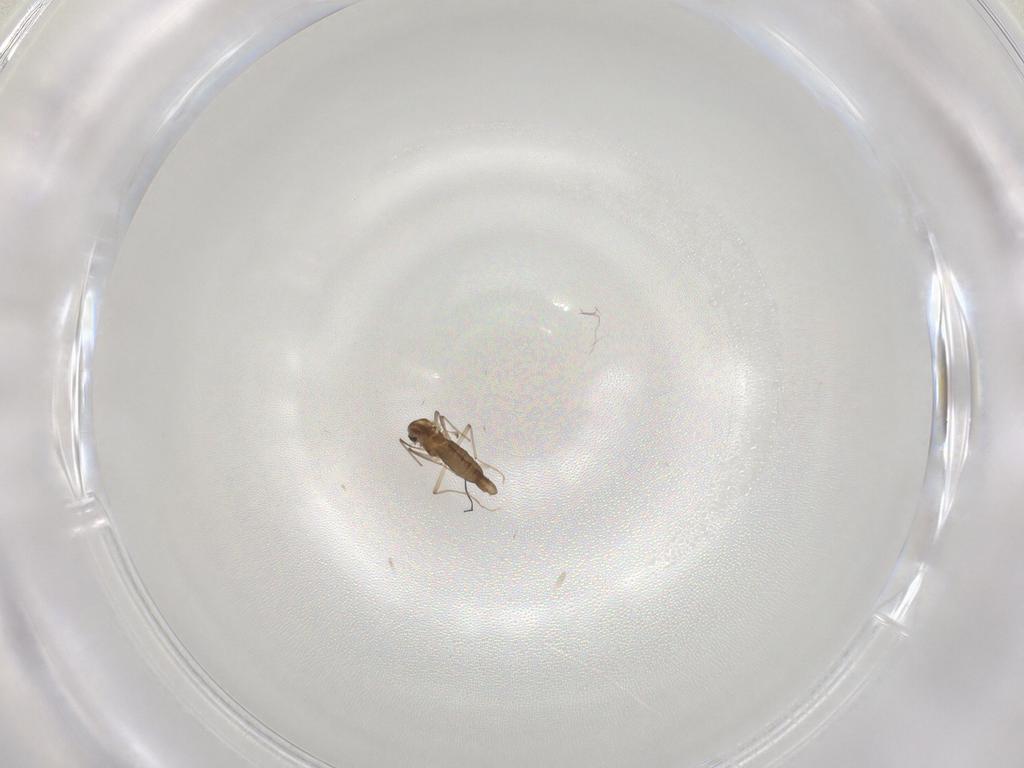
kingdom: Animalia
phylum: Arthropoda
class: Insecta
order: Diptera
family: Chironomidae
